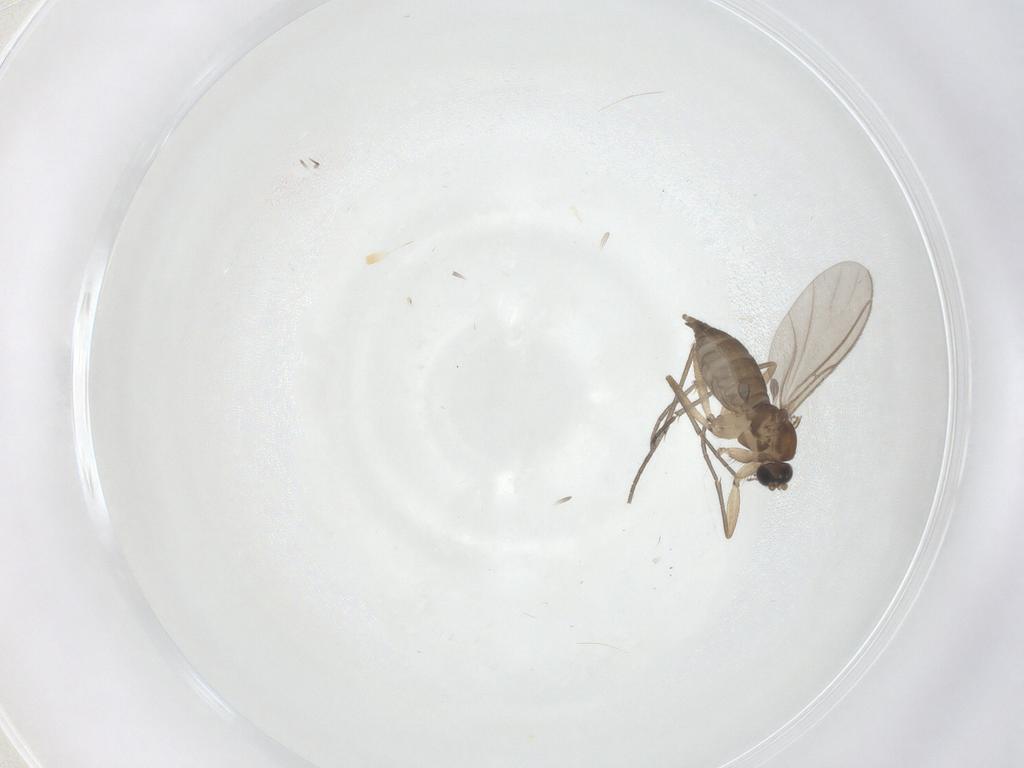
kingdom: Animalia
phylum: Arthropoda
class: Insecta
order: Diptera
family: Sciaridae
